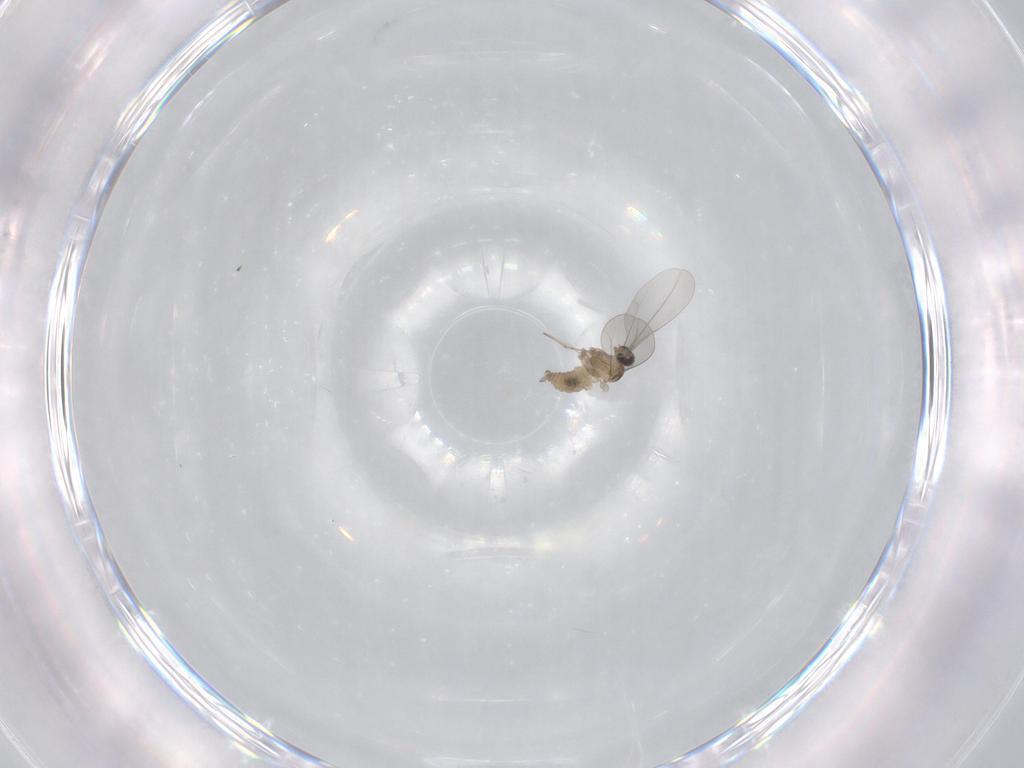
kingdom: Animalia
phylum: Arthropoda
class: Insecta
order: Diptera
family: Cecidomyiidae
